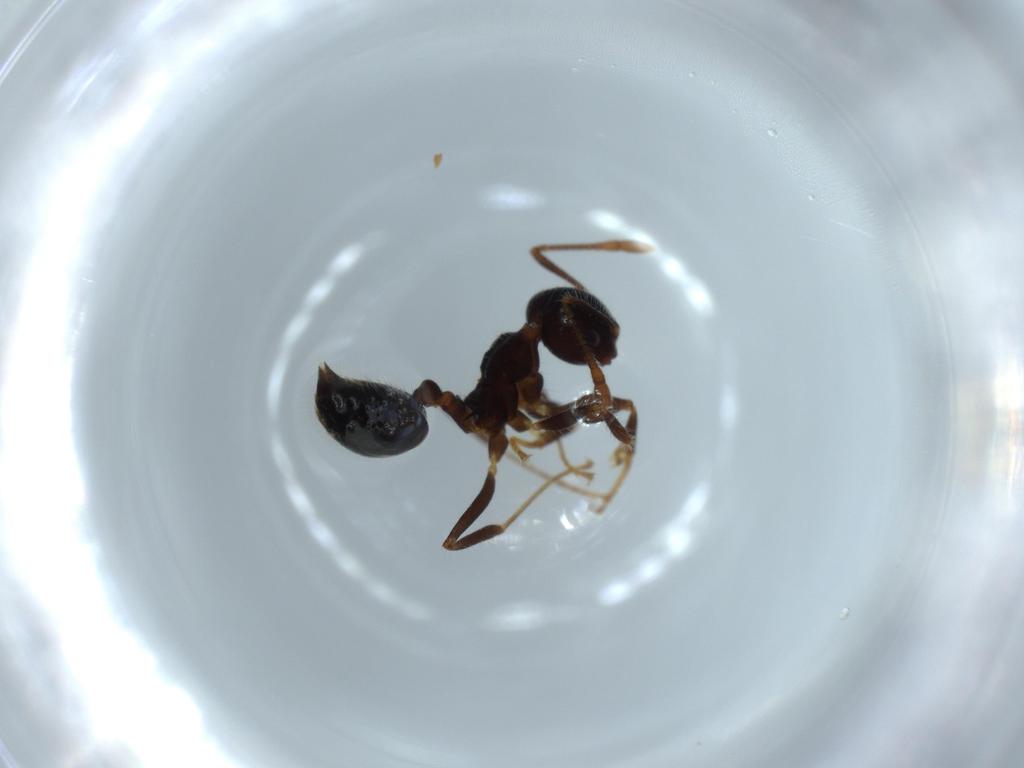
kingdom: Animalia
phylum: Arthropoda
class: Insecta
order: Hymenoptera
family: Formicidae
